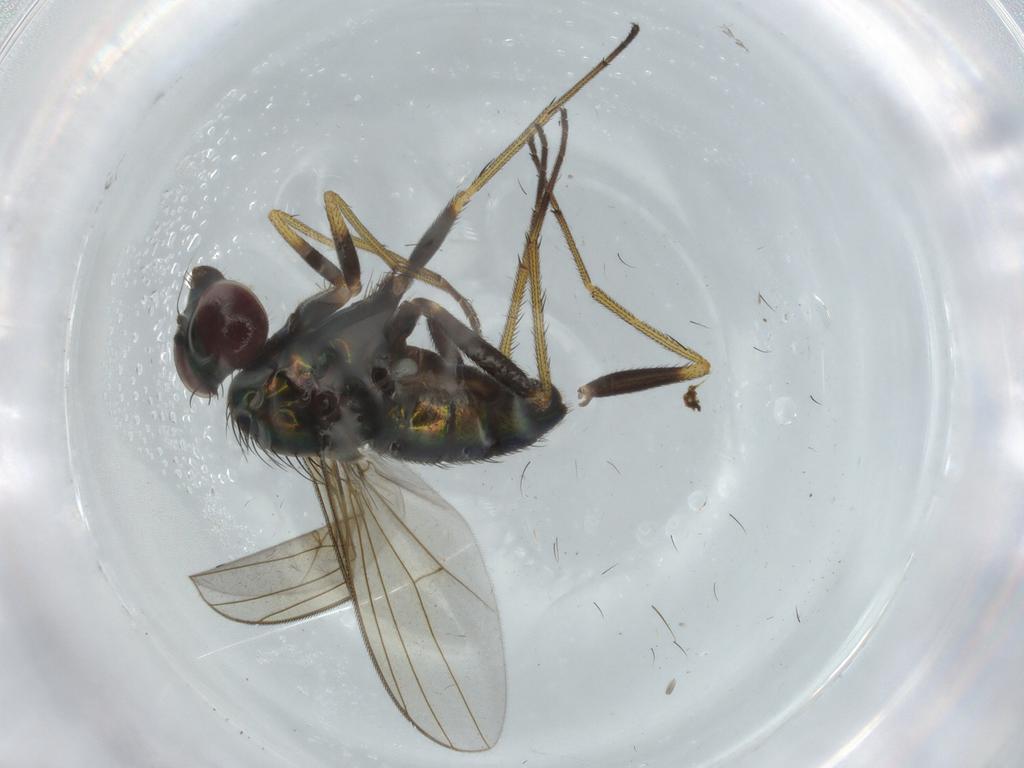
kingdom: Animalia
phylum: Arthropoda
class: Insecta
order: Diptera
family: Dolichopodidae
